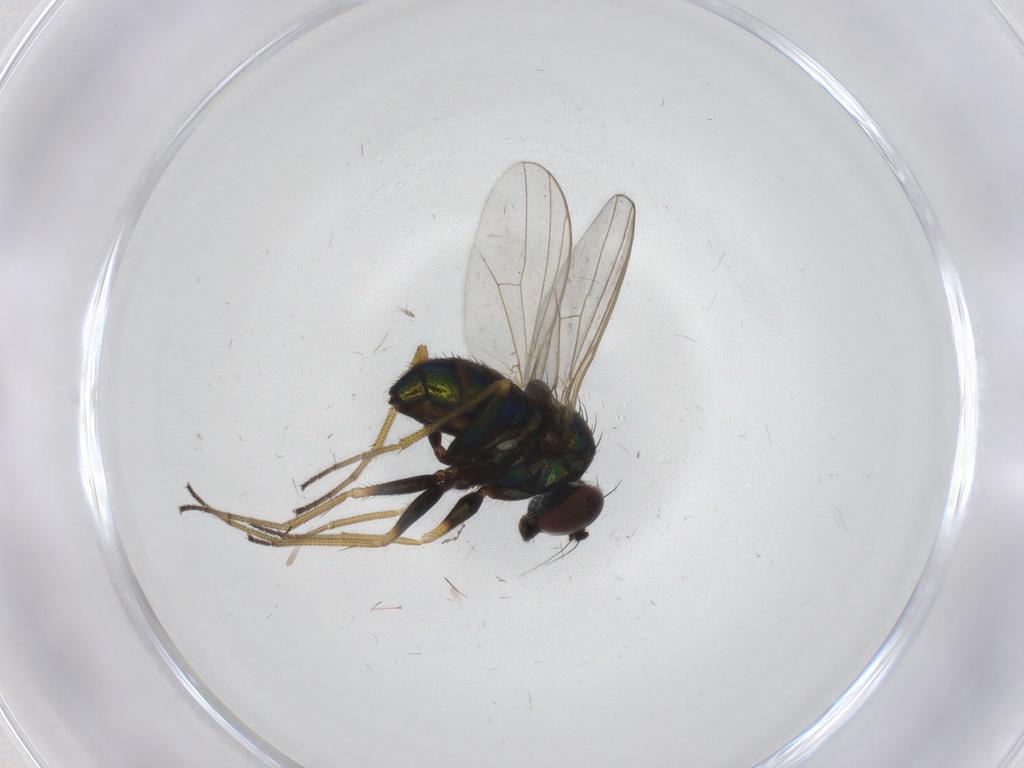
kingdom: Animalia
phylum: Arthropoda
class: Insecta
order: Diptera
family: Dolichopodidae
